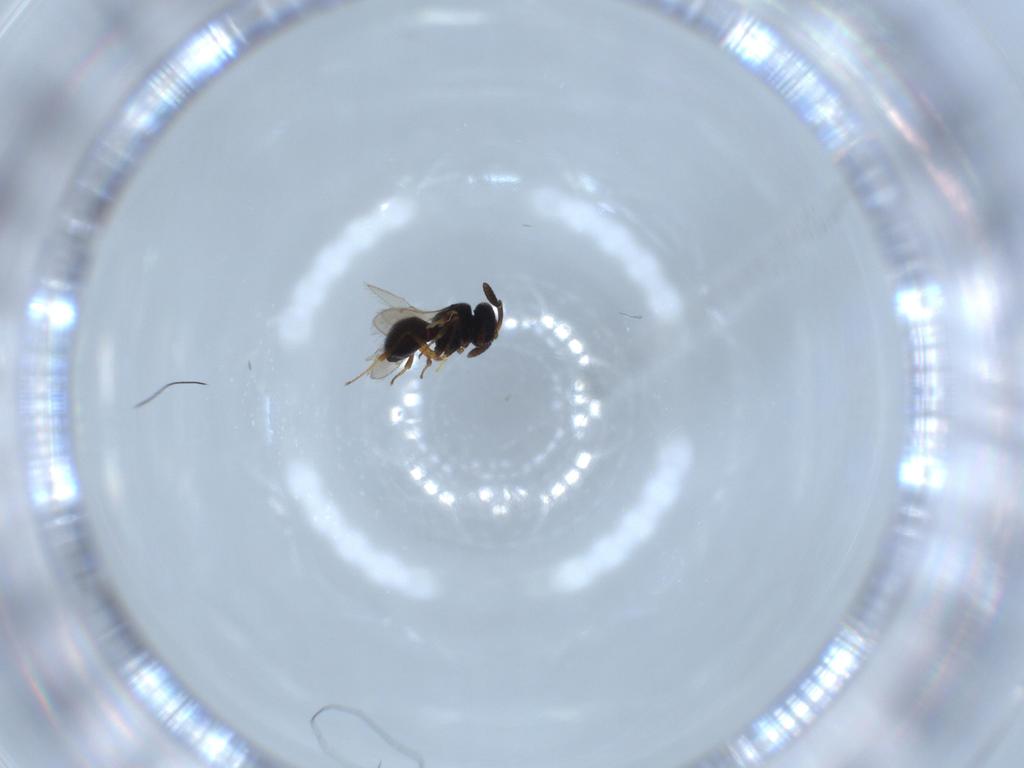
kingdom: Animalia
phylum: Arthropoda
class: Insecta
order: Hymenoptera
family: Scelionidae
